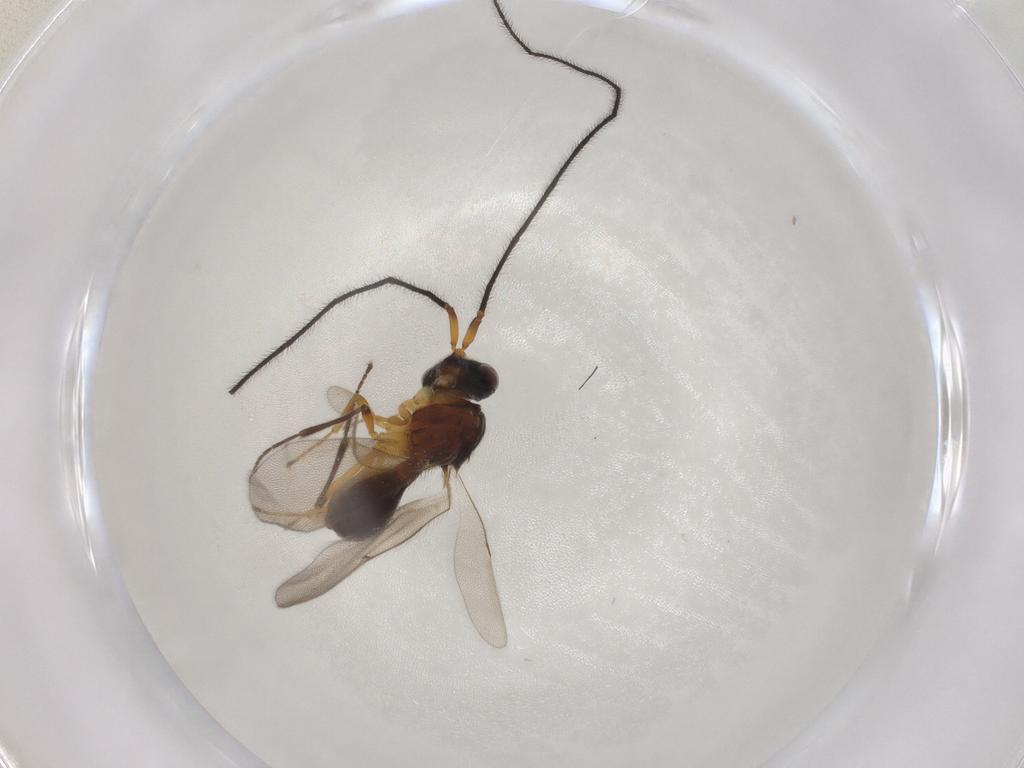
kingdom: Animalia
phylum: Arthropoda
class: Insecta
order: Hymenoptera
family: Scelionidae
